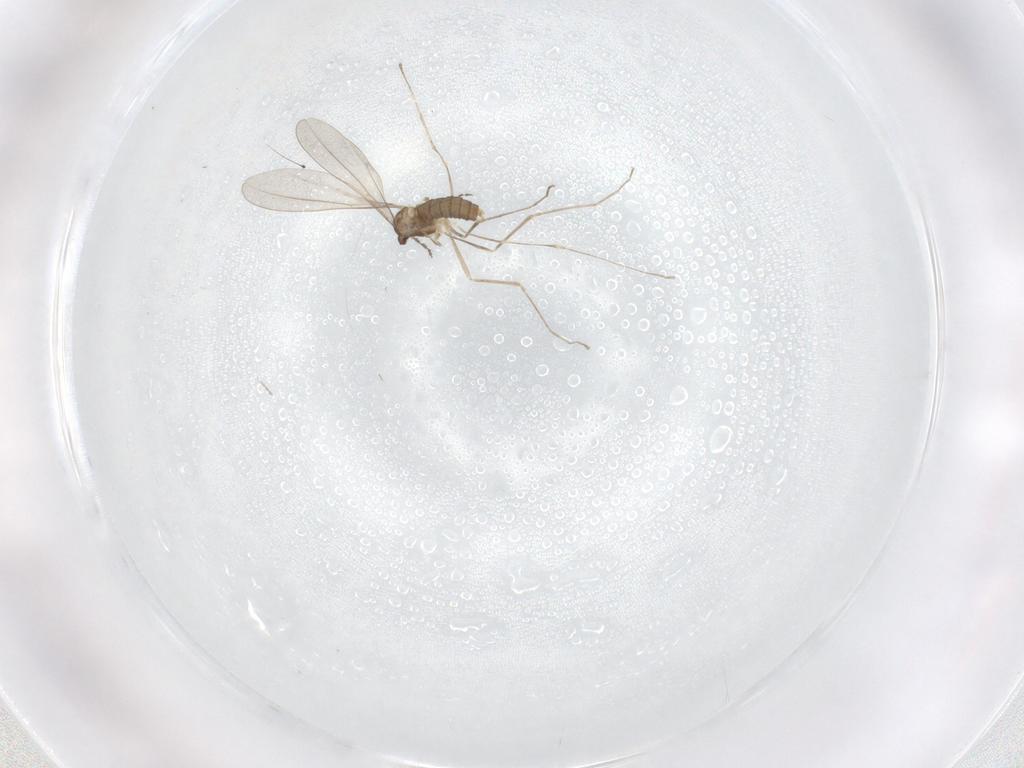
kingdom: Animalia
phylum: Arthropoda
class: Insecta
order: Diptera
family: Cecidomyiidae
